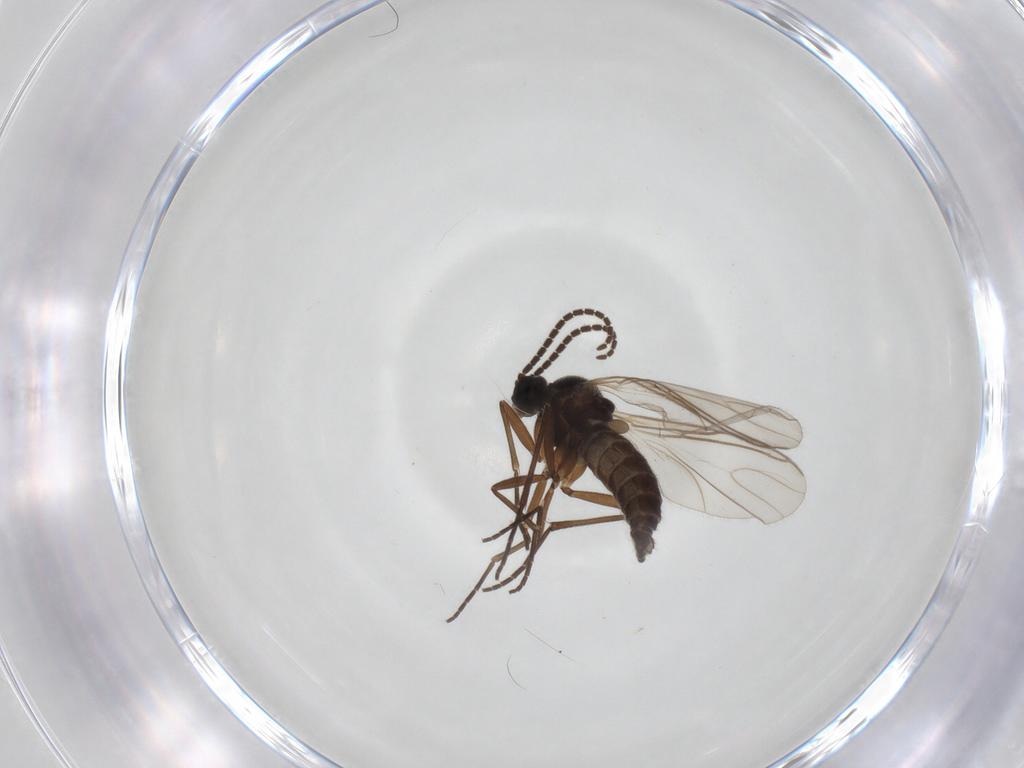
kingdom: Animalia
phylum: Arthropoda
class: Insecta
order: Diptera
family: Sciaridae
